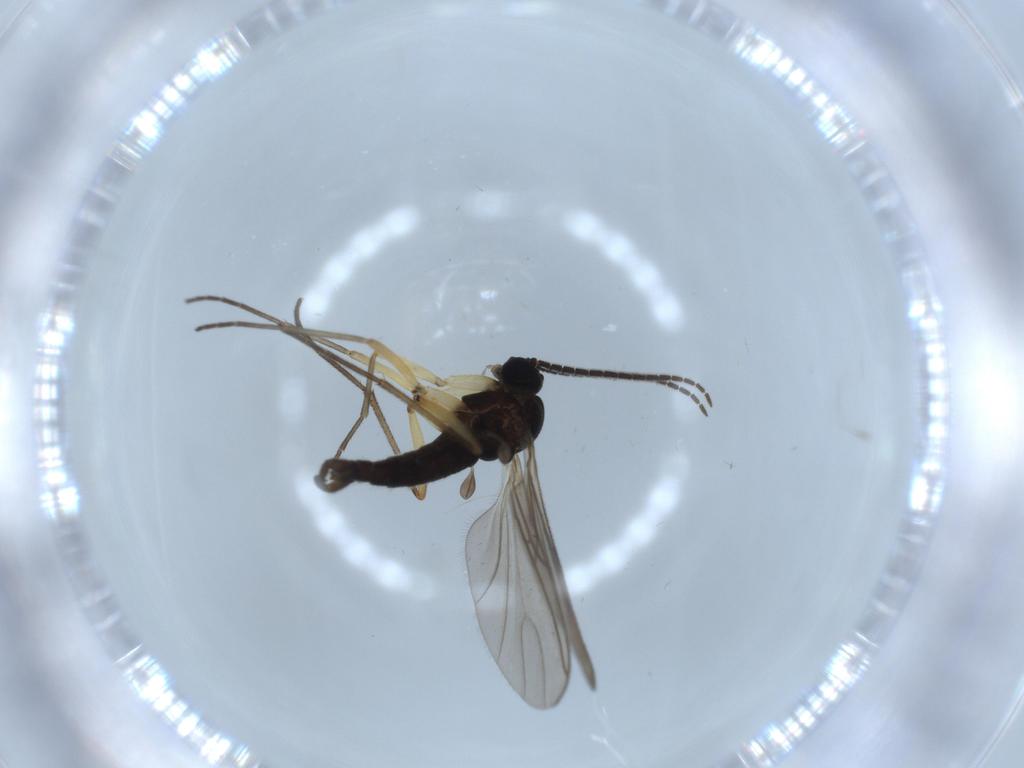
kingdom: Animalia
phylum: Arthropoda
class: Insecta
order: Diptera
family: Sciaridae
